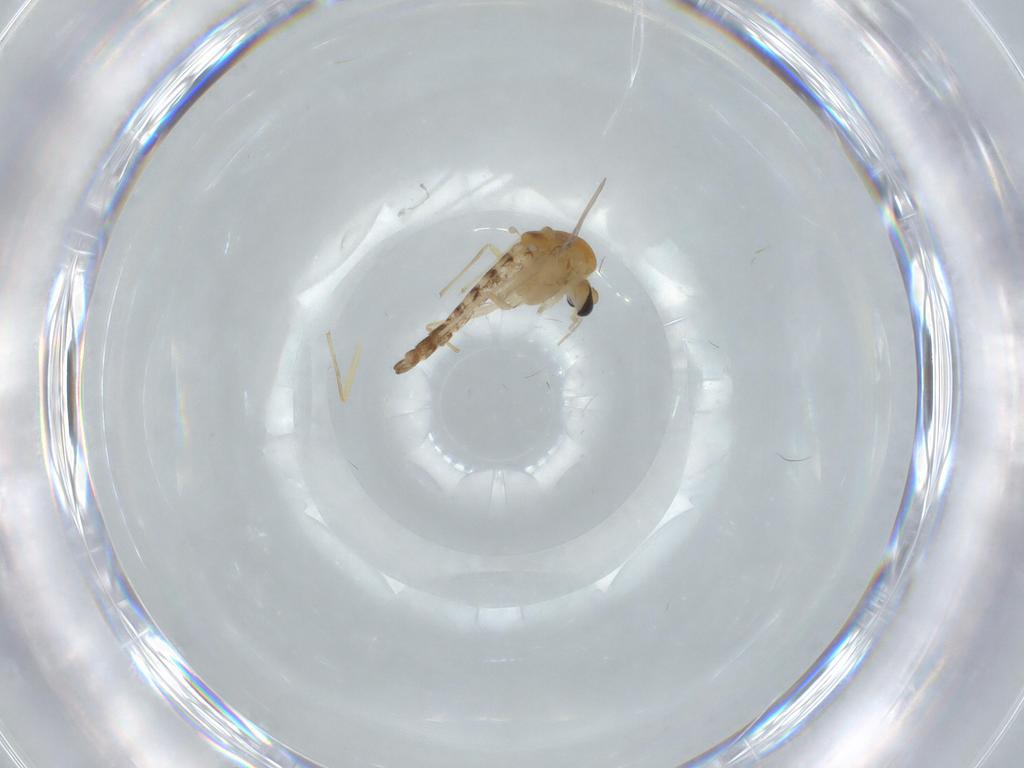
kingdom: Animalia
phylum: Arthropoda
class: Insecta
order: Diptera
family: Chironomidae
